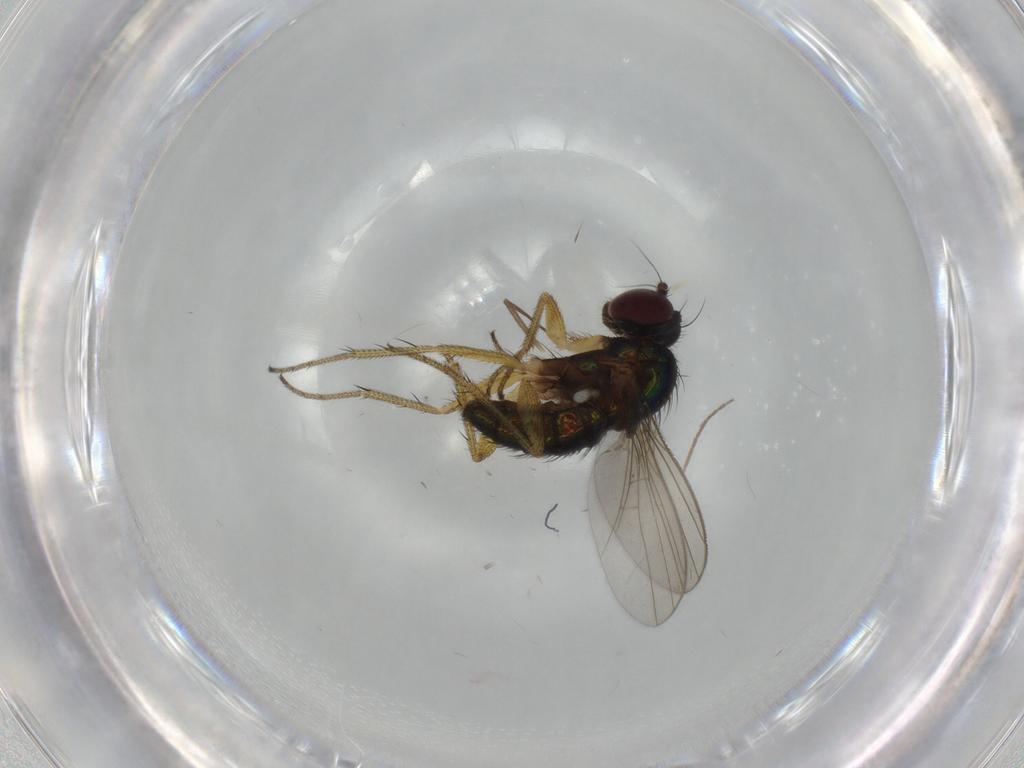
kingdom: Animalia
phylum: Arthropoda
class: Insecta
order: Diptera
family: Dolichopodidae
